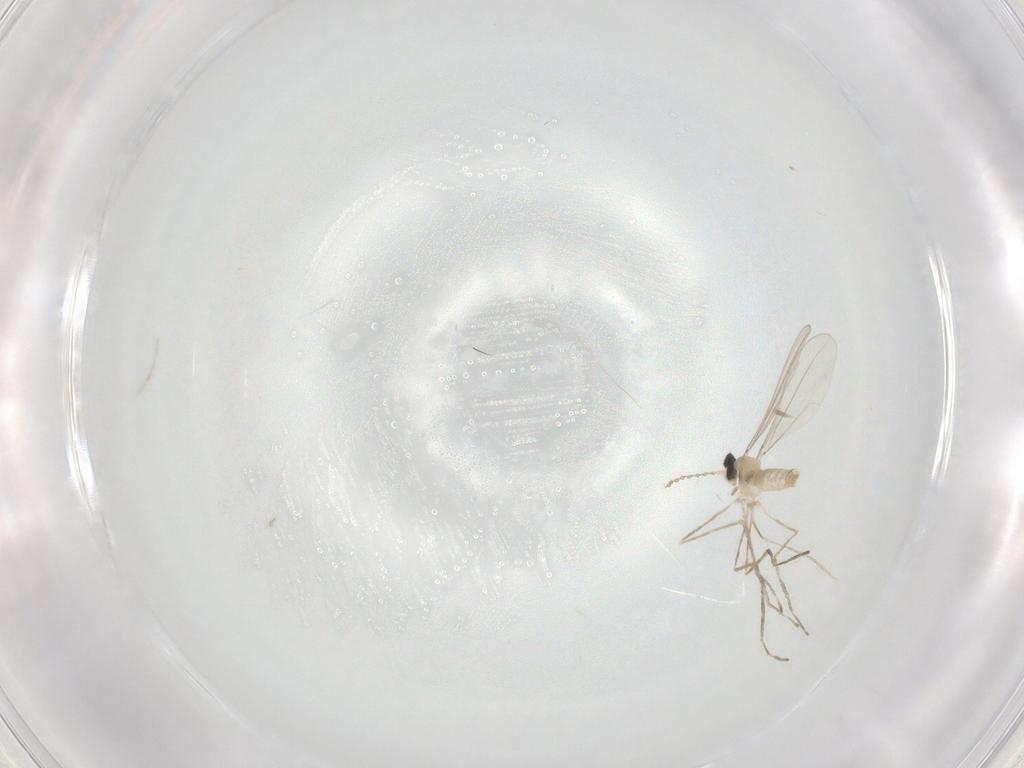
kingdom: Animalia
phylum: Arthropoda
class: Insecta
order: Diptera
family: Cecidomyiidae
